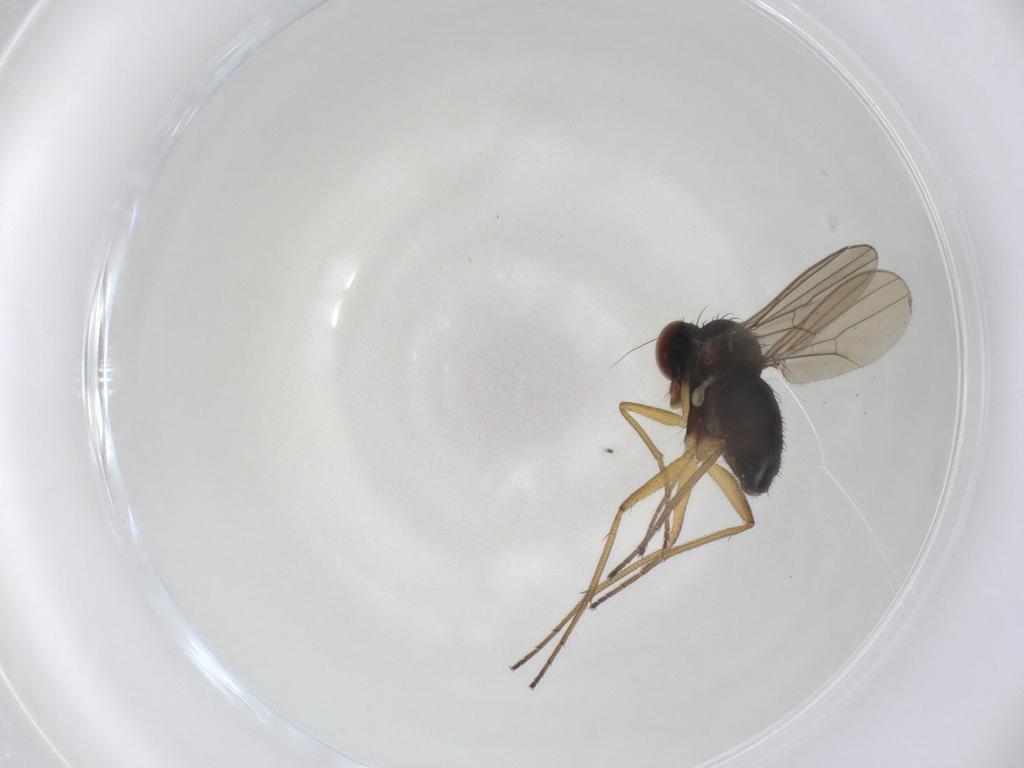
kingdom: Animalia
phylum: Arthropoda
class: Insecta
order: Diptera
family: Dolichopodidae
